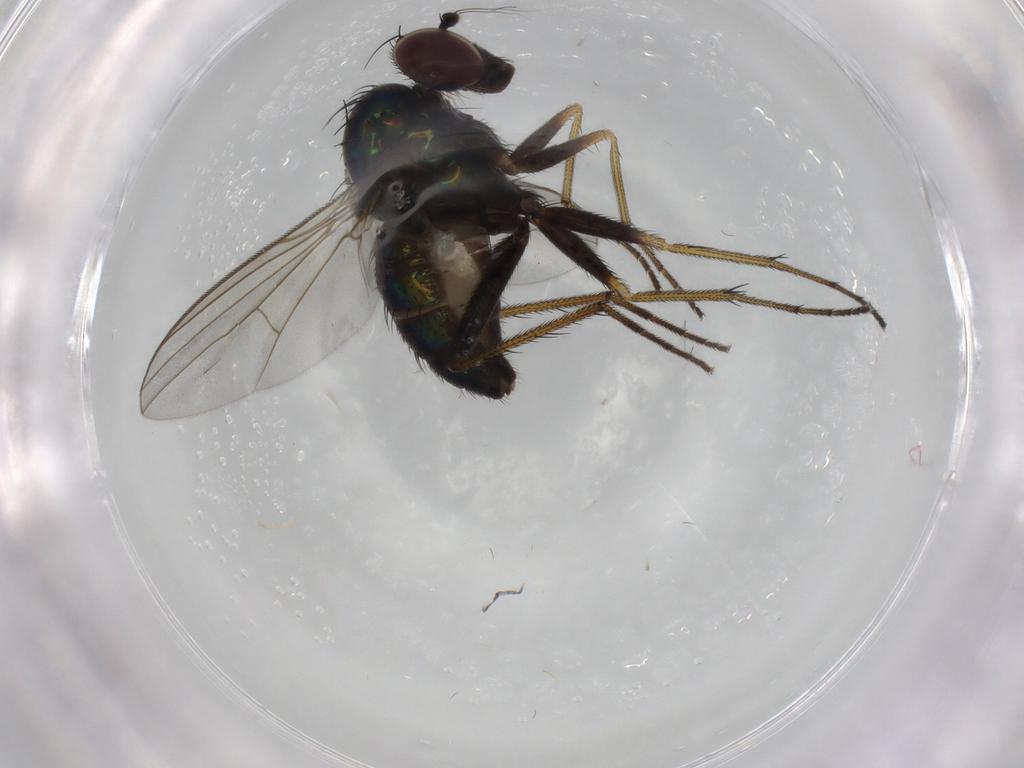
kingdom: Animalia
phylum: Arthropoda
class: Insecta
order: Diptera
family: Dolichopodidae
